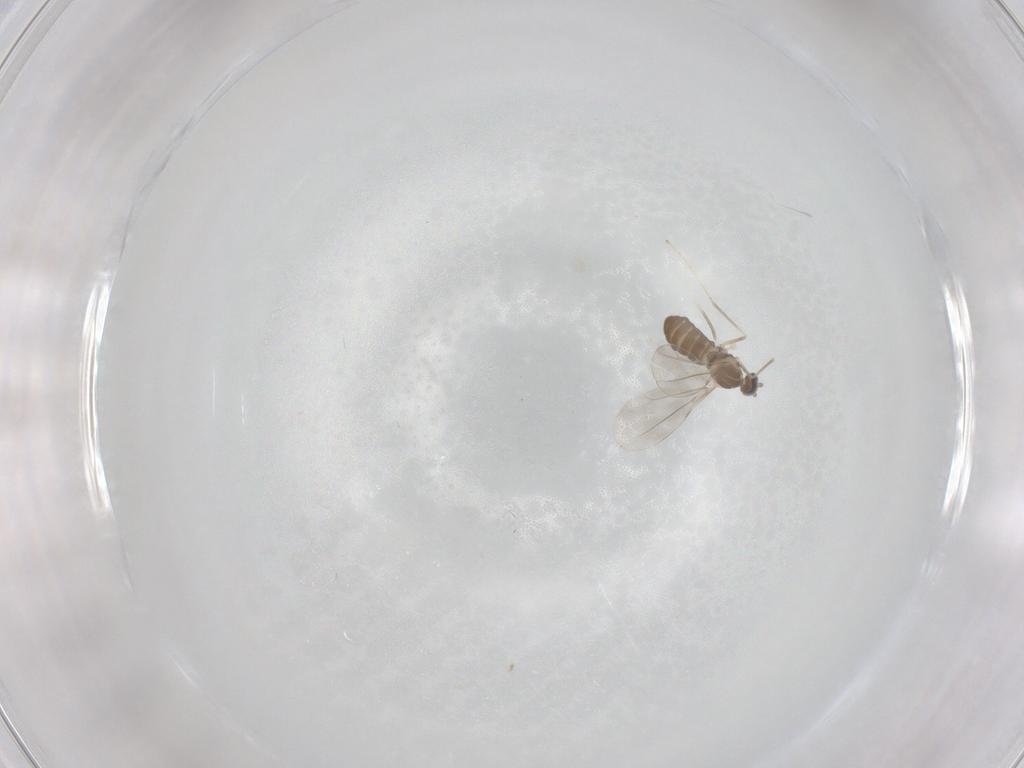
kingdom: Animalia
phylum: Arthropoda
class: Insecta
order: Diptera
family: Cecidomyiidae
